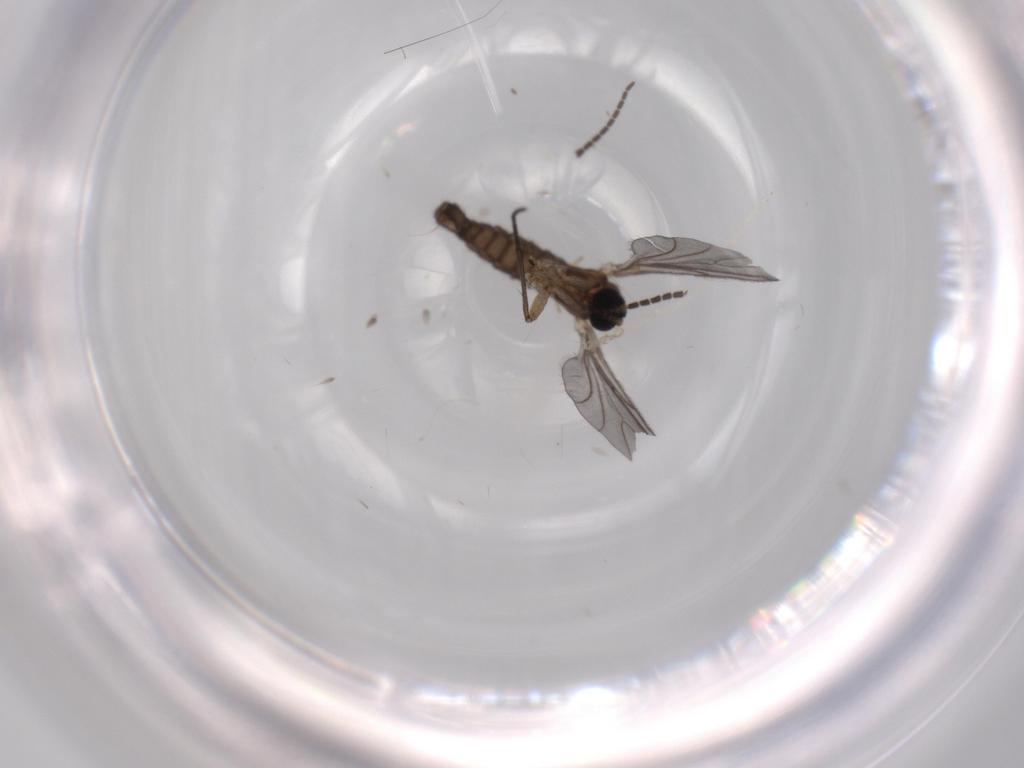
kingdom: Animalia
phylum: Arthropoda
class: Insecta
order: Diptera
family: Sciaridae
